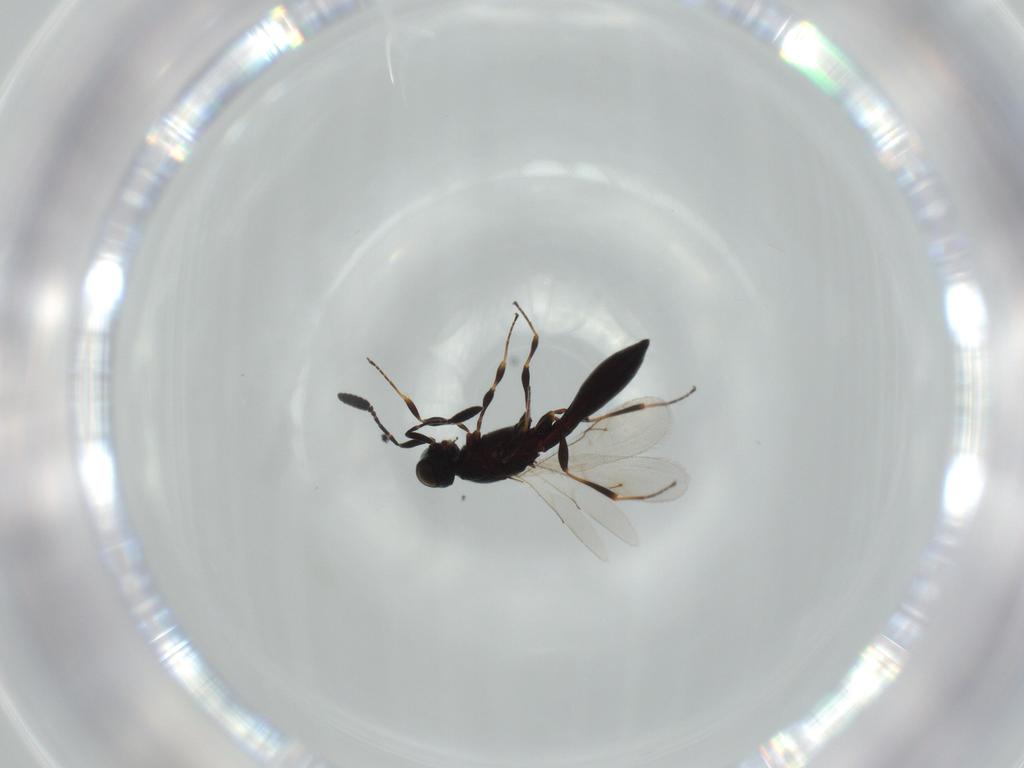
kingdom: Animalia
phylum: Arthropoda
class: Insecta
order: Hymenoptera
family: Scelionidae
